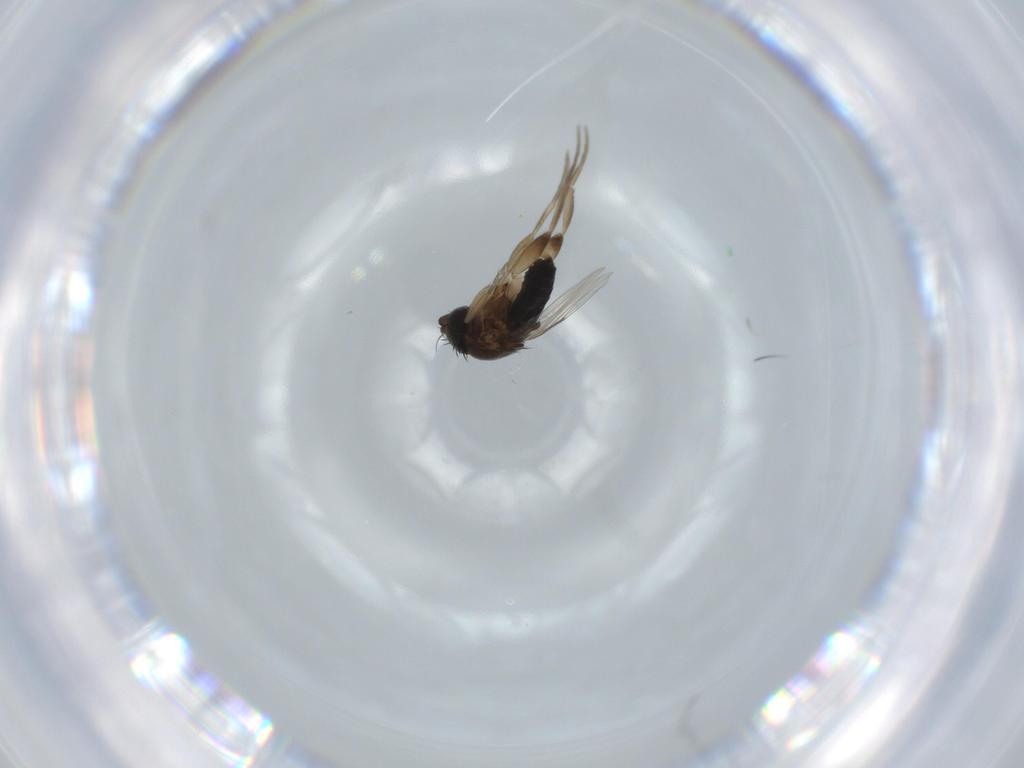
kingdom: Animalia
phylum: Arthropoda
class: Insecta
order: Diptera
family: Phoridae
